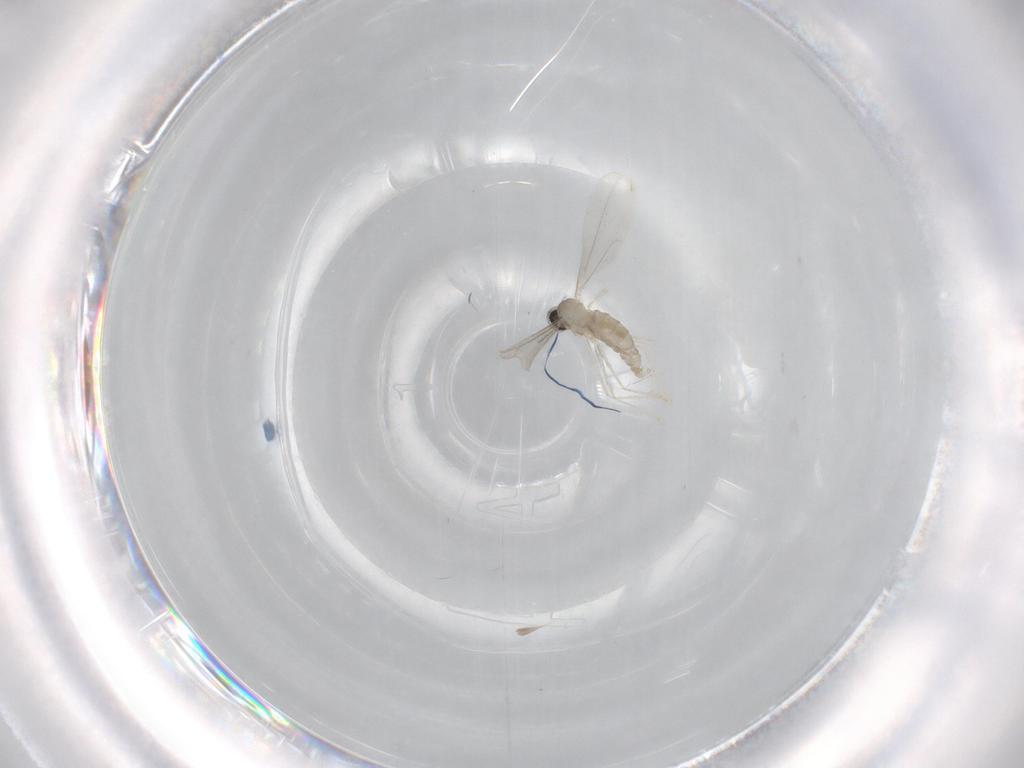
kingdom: Animalia
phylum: Arthropoda
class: Insecta
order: Diptera
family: Cecidomyiidae
